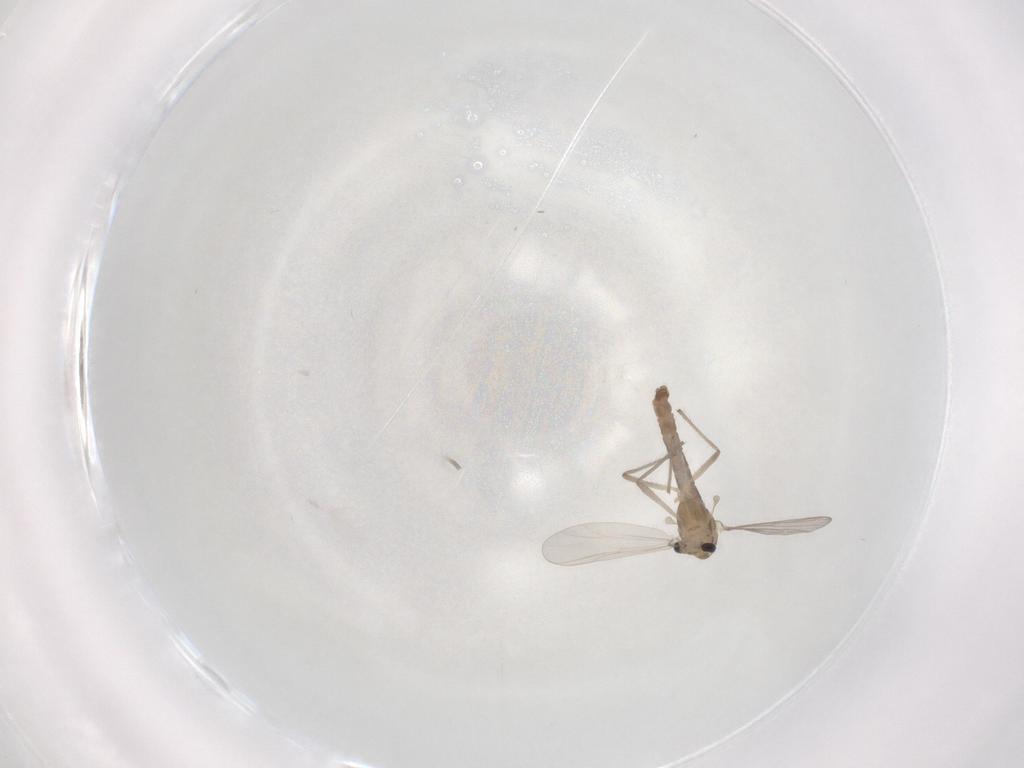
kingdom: Animalia
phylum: Arthropoda
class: Insecta
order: Diptera
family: Chironomidae
